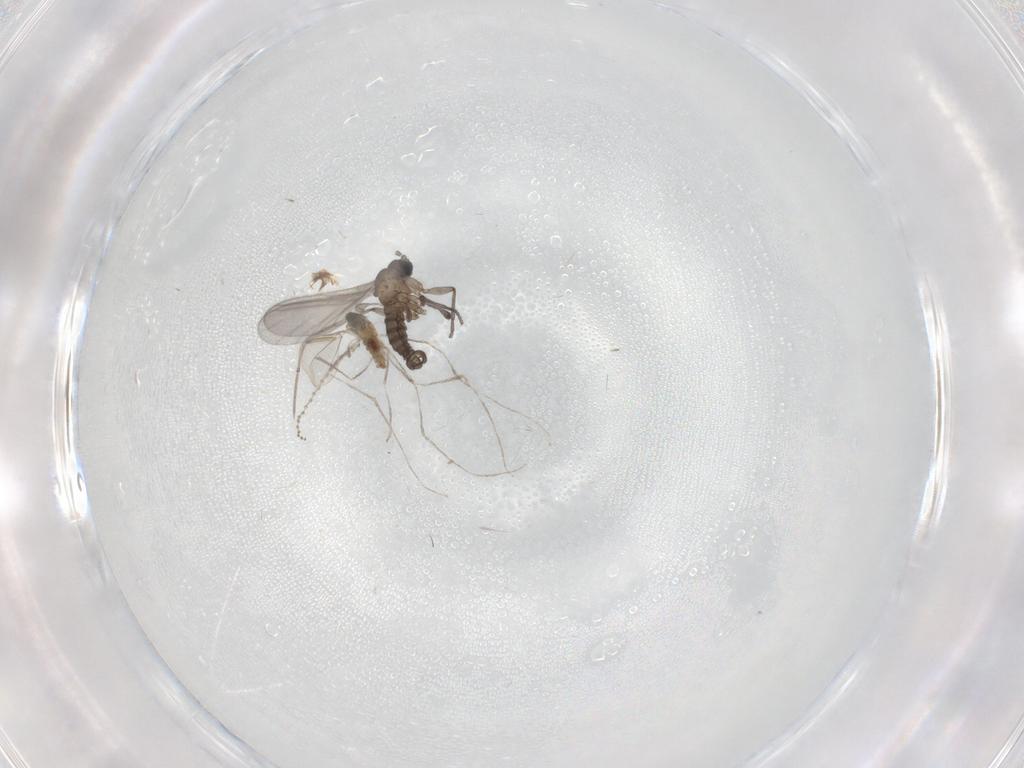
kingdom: Animalia
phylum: Arthropoda
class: Insecta
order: Diptera
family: Sciaridae
